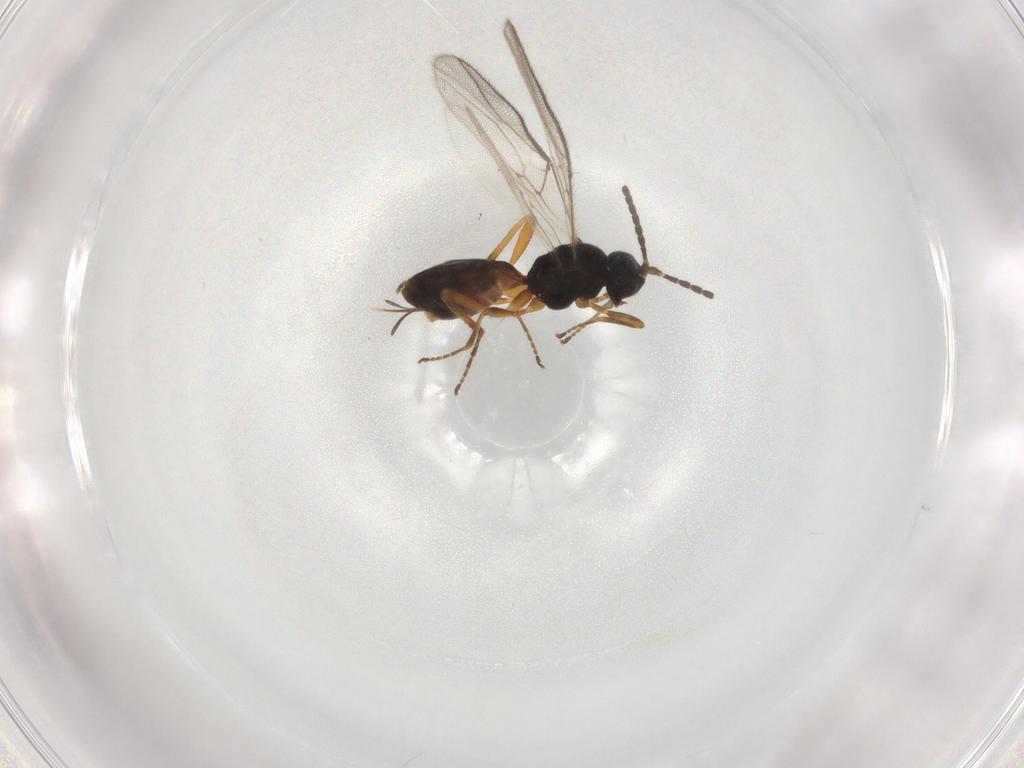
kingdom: Animalia
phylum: Arthropoda
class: Insecta
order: Hymenoptera
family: Braconidae
